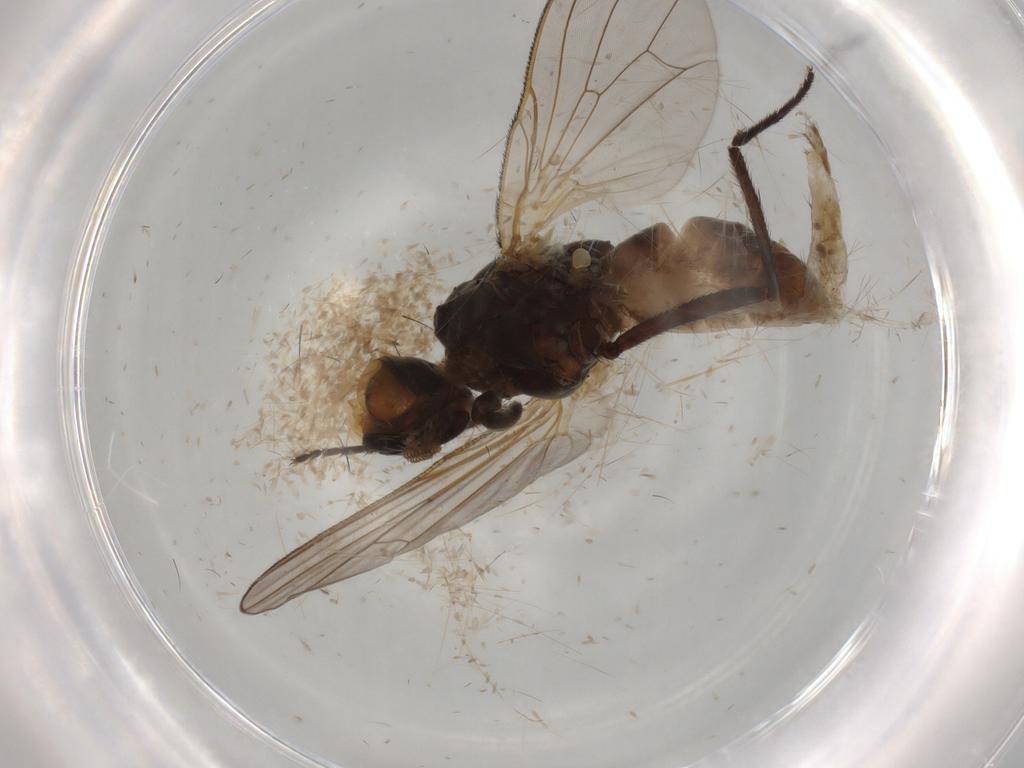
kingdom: Animalia
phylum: Arthropoda
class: Insecta
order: Diptera
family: Anthomyiidae
